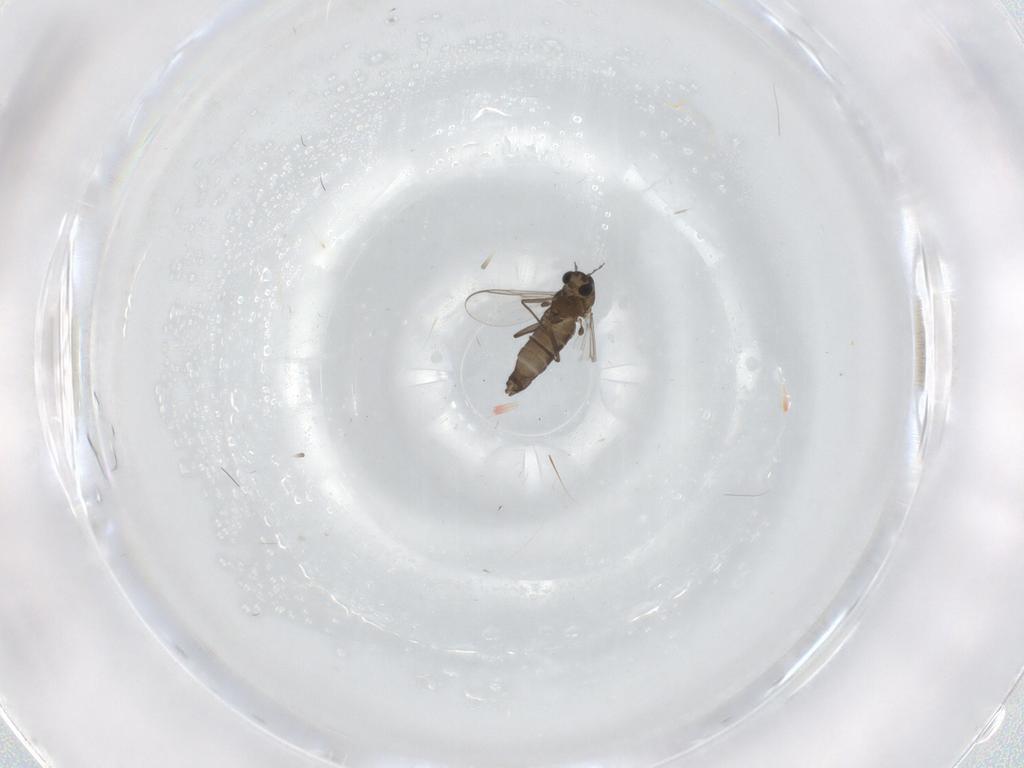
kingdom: Animalia
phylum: Arthropoda
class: Insecta
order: Diptera
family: Chironomidae
